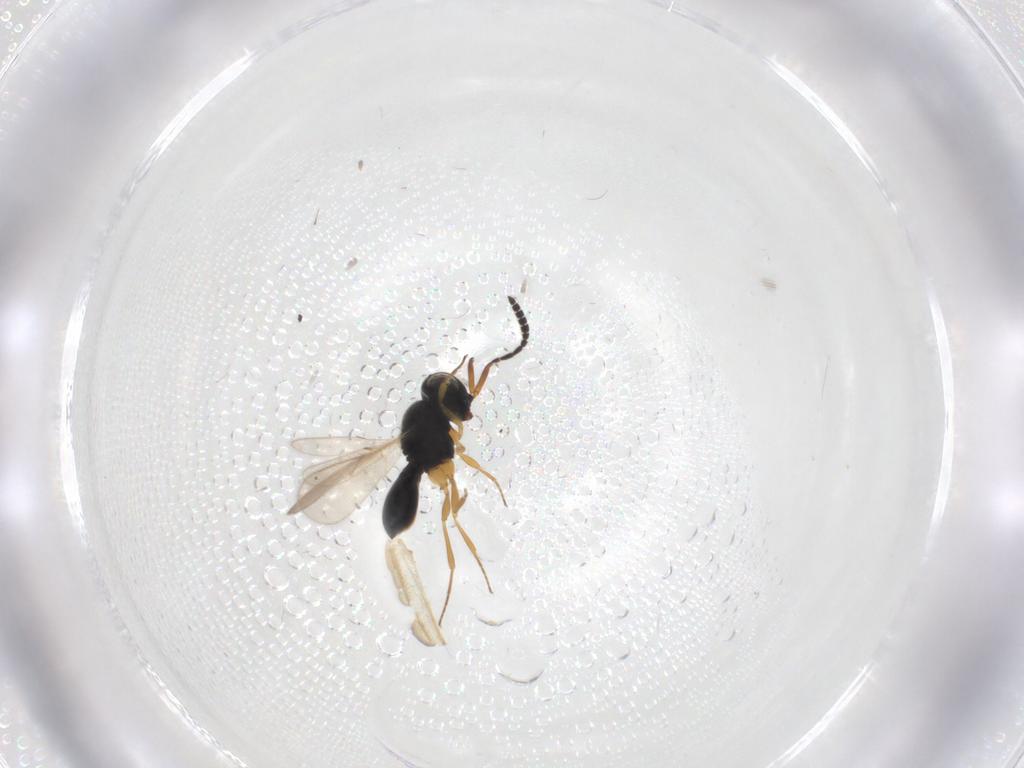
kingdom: Animalia
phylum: Arthropoda
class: Insecta
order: Hymenoptera
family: Scelionidae
